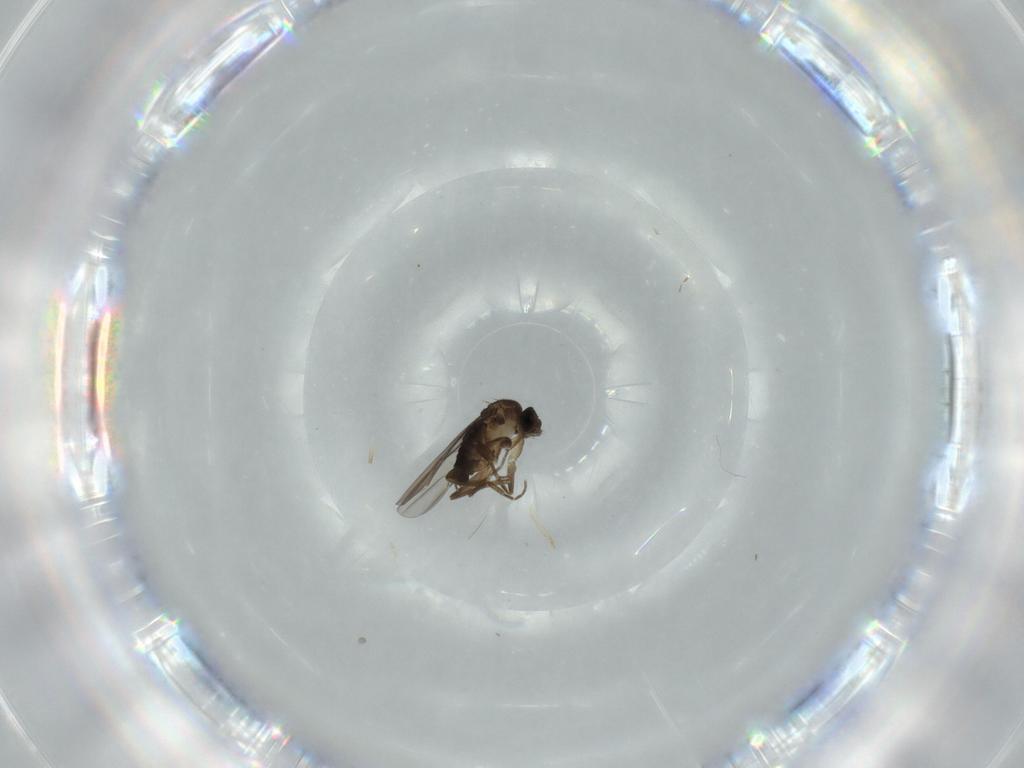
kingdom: Animalia
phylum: Arthropoda
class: Insecta
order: Diptera
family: Phoridae
